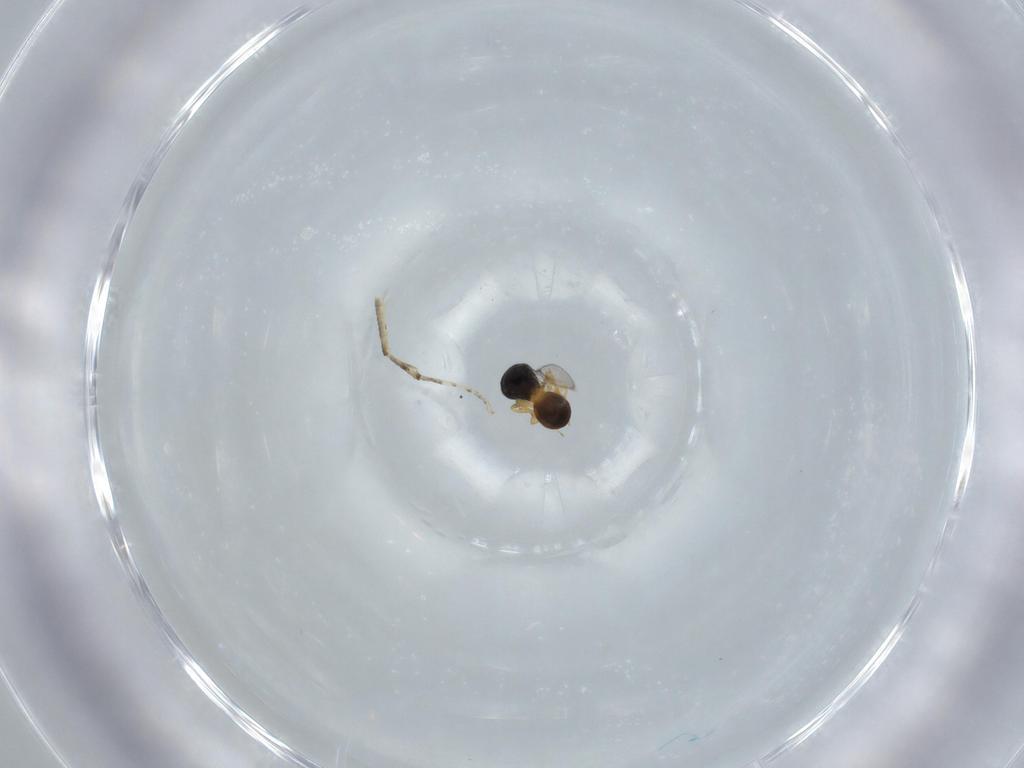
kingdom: Animalia
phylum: Arthropoda
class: Insecta
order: Hymenoptera
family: Scelionidae
